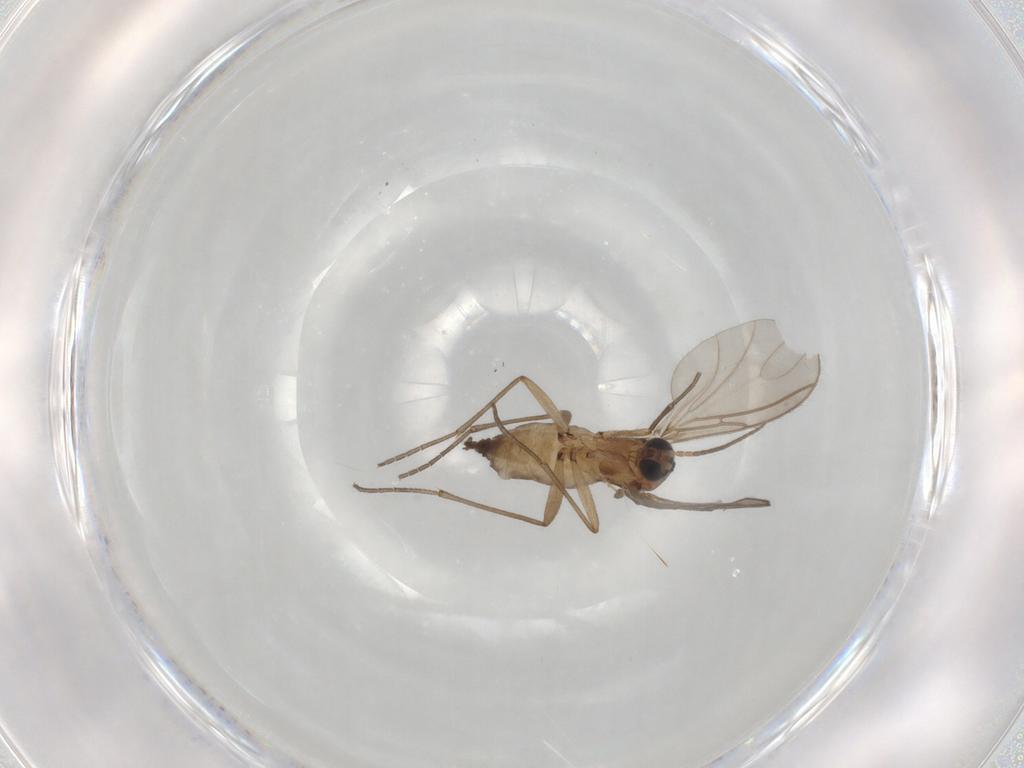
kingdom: Animalia
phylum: Arthropoda
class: Insecta
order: Diptera
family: Sciaridae
